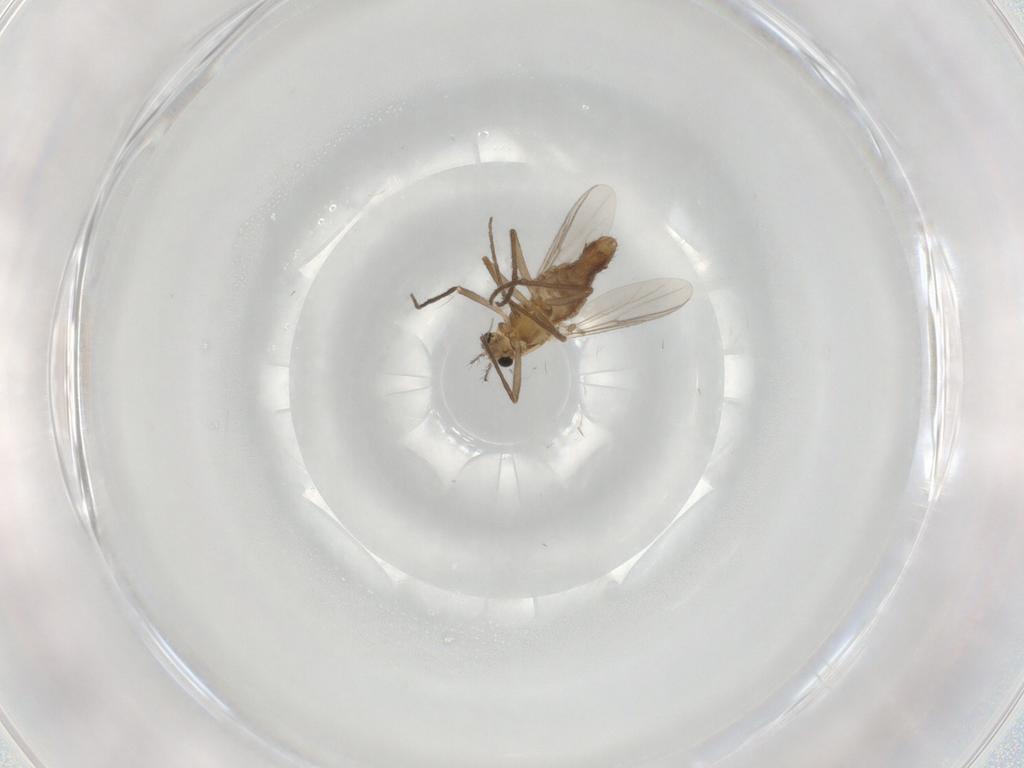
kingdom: Animalia
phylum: Arthropoda
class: Insecta
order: Diptera
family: Chironomidae
